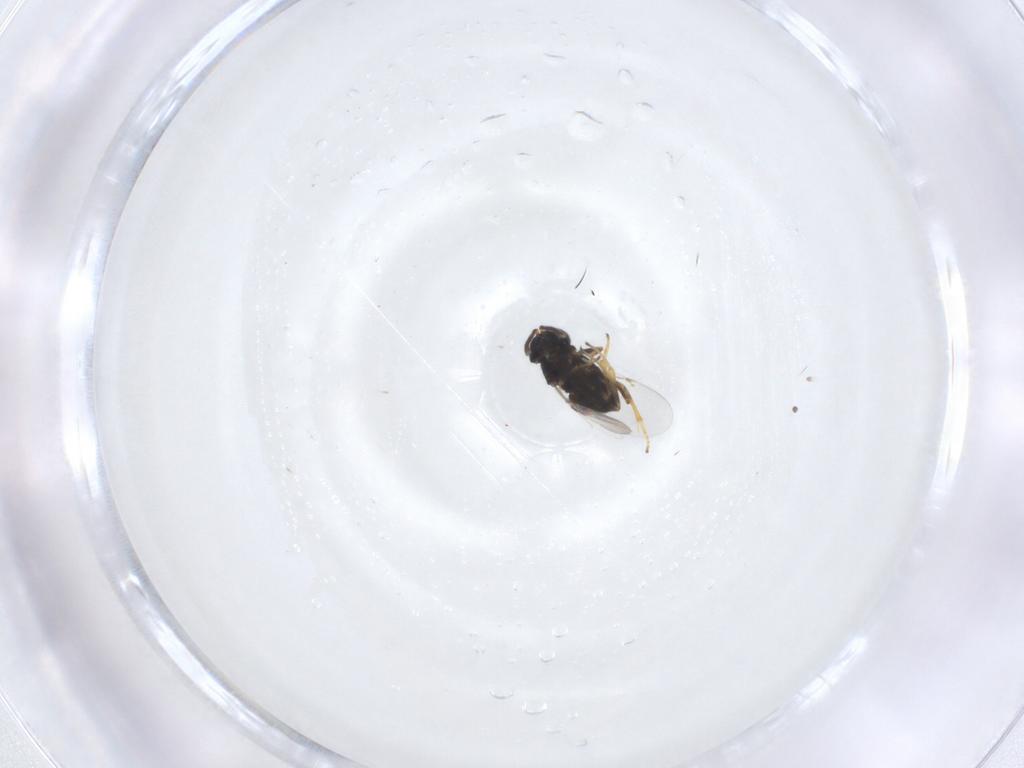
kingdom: Animalia
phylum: Arthropoda
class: Insecta
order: Hymenoptera
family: Encyrtidae
